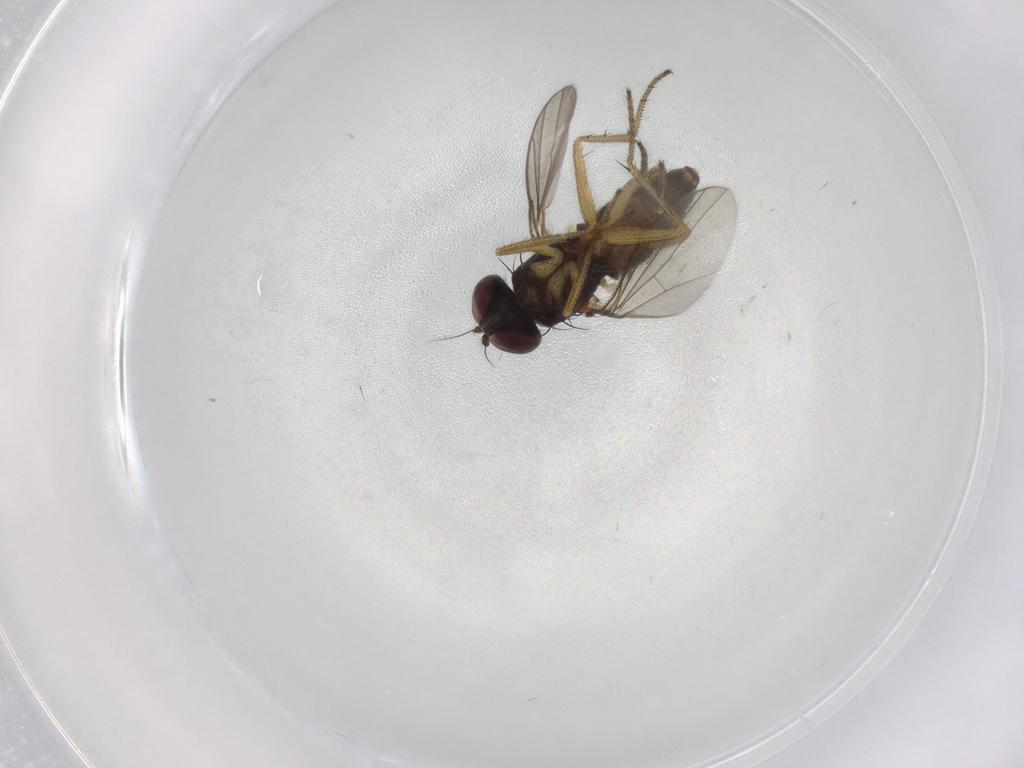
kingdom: Animalia
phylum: Arthropoda
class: Insecta
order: Diptera
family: Dolichopodidae
